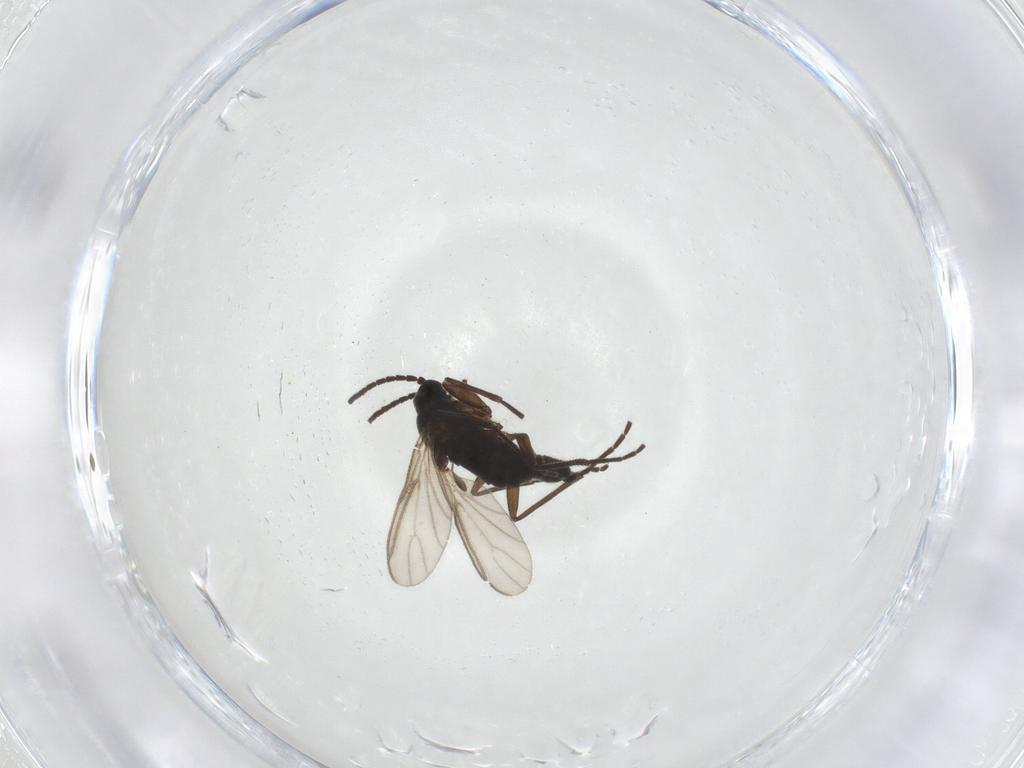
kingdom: Animalia
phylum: Arthropoda
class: Insecta
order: Diptera
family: Sciaridae
